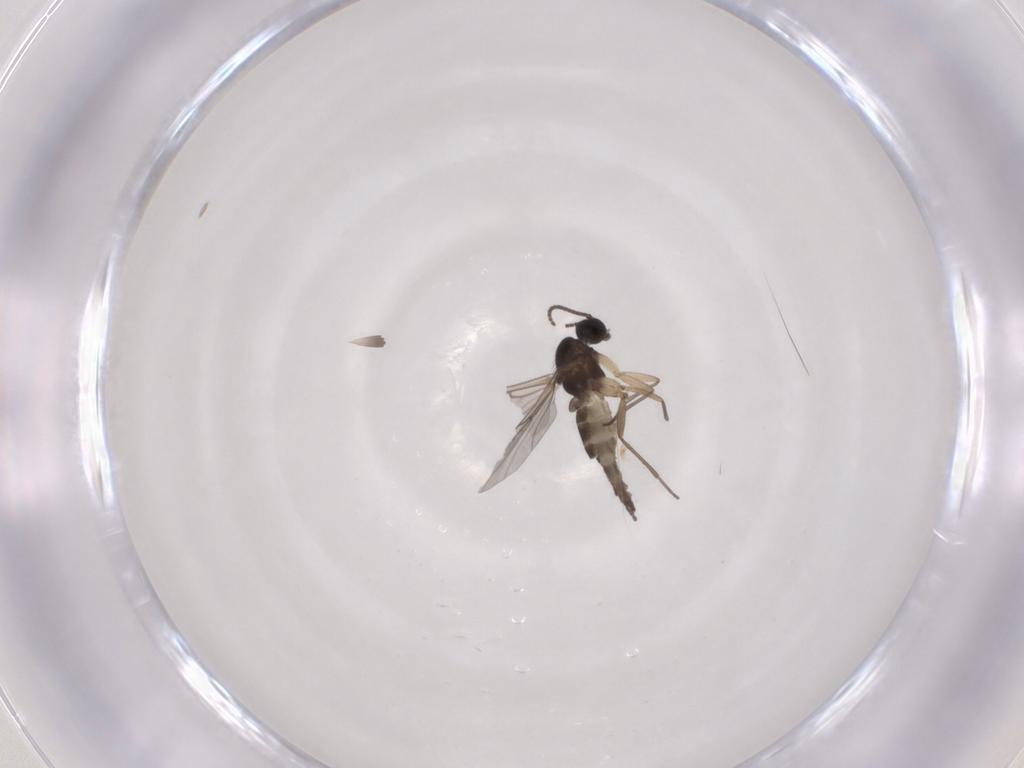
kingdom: Animalia
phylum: Arthropoda
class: Insecta
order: Diptera
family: Sciaridae
